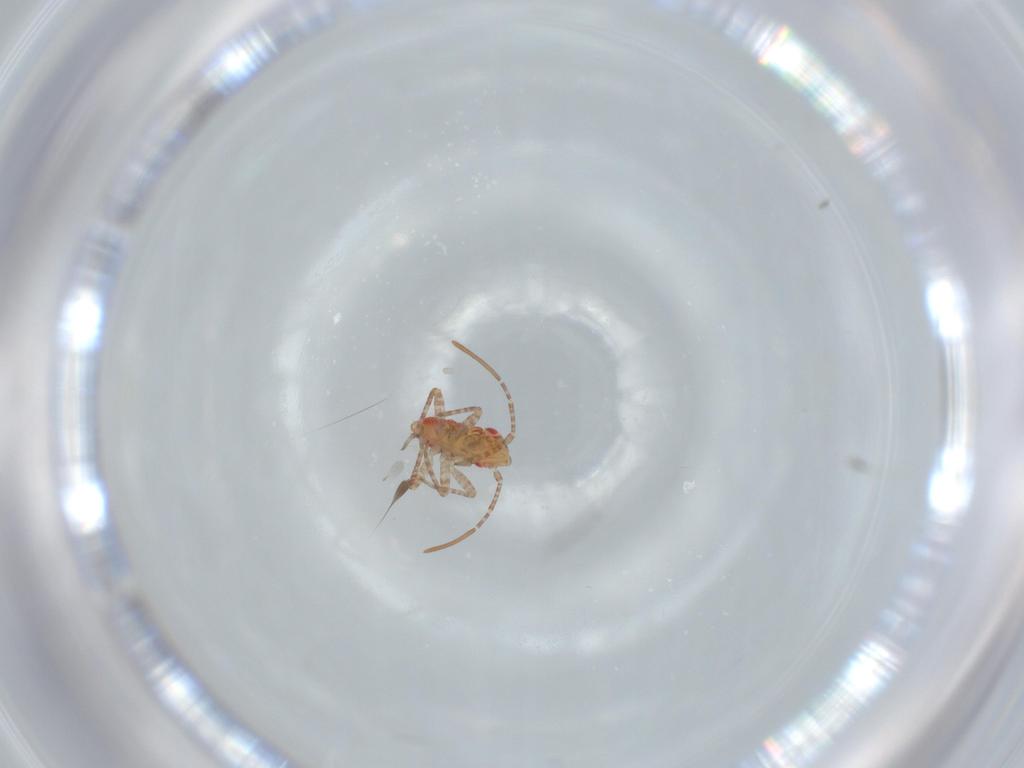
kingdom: Animalia
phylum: Arthropoda
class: Insecta
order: Hemiptera
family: Miridae
